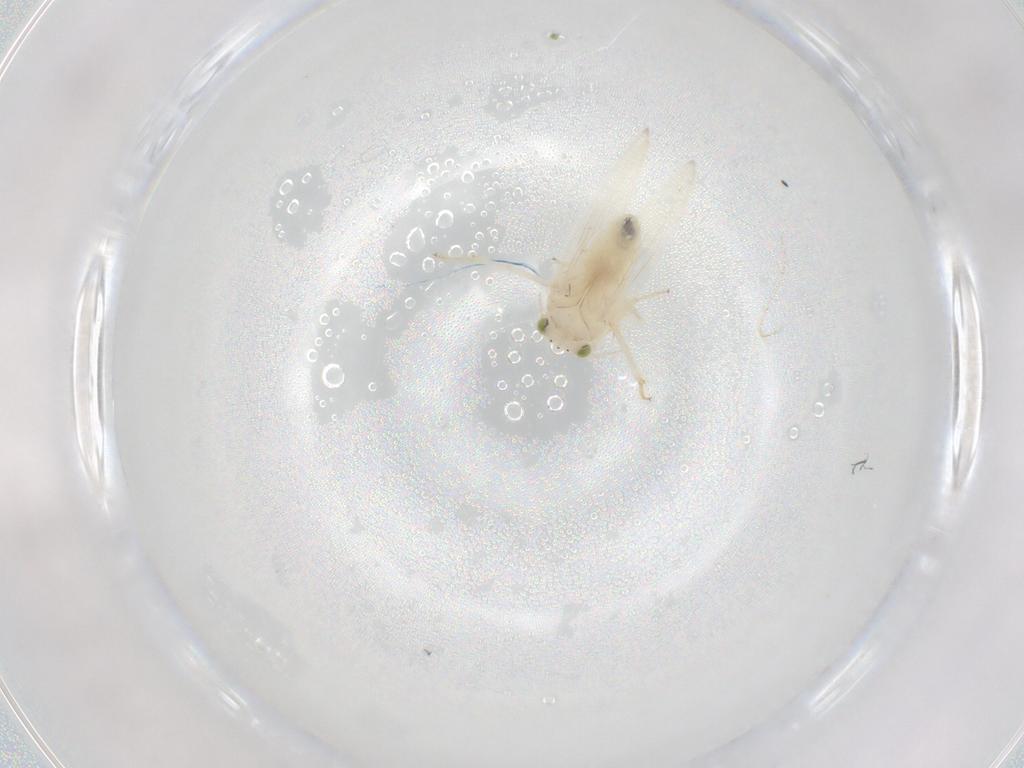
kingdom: Animalia
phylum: Arthropoda
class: Insecta
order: Psocodea
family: Lepidopsocidae
